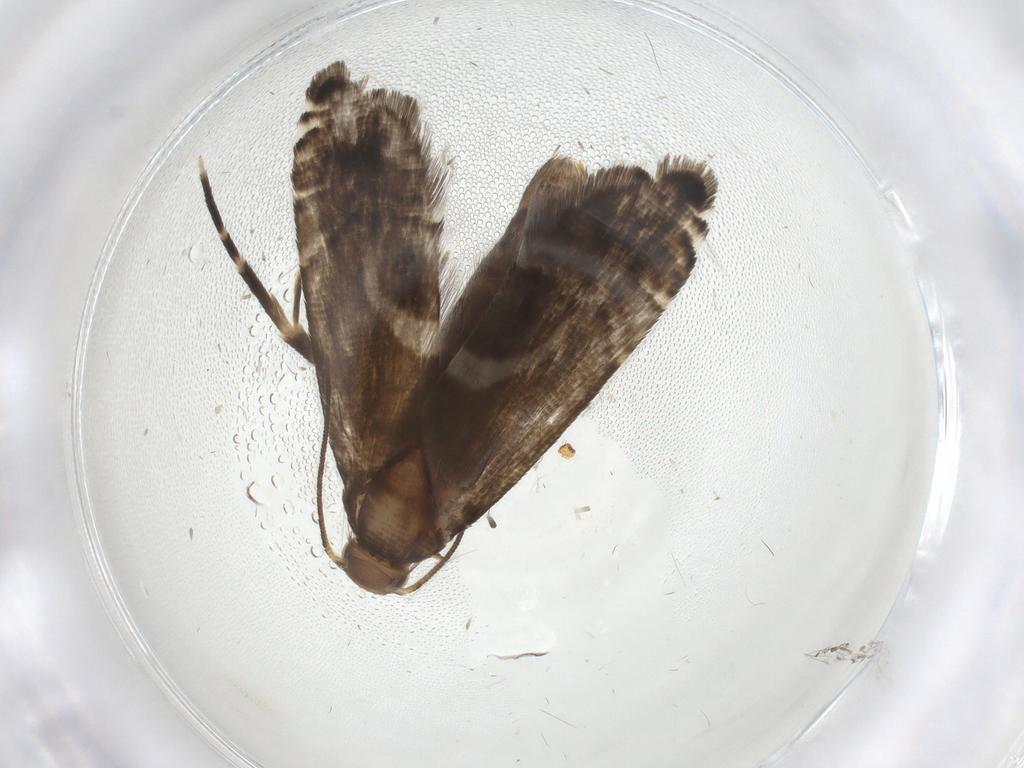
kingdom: Animalia
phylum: Arthropoda
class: Insecta
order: Lepidoptera
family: Glyphipterigidae
